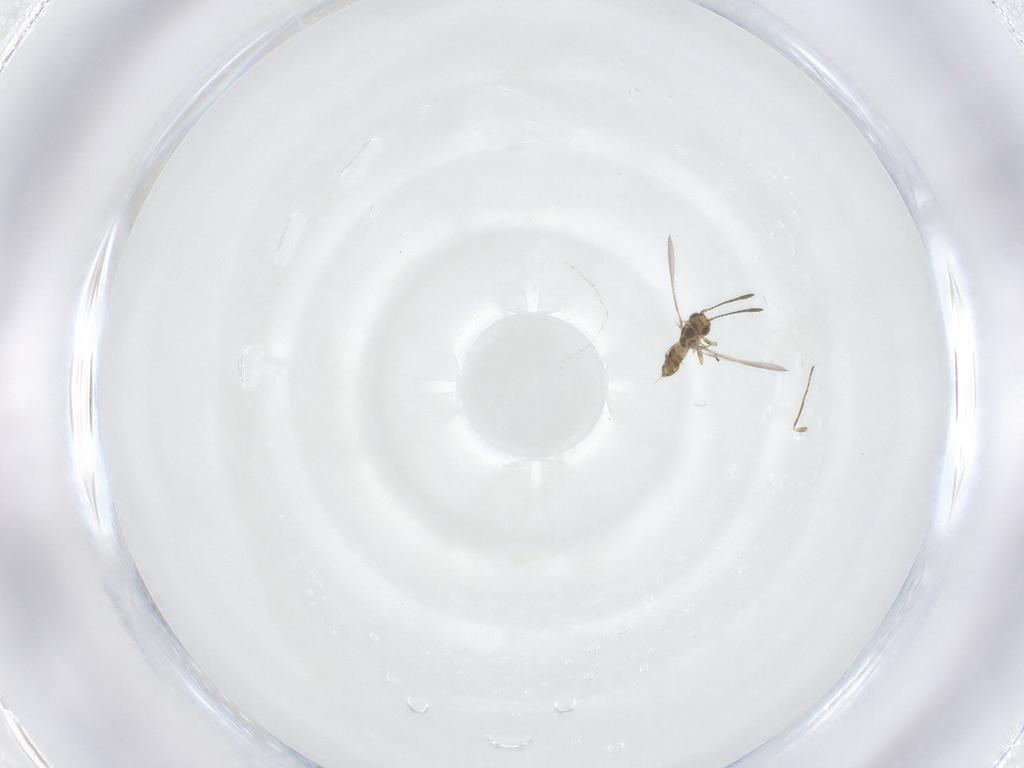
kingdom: Animalia
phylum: Arthropoda
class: Insecta
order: Hymenoptera
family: Mymaridae
